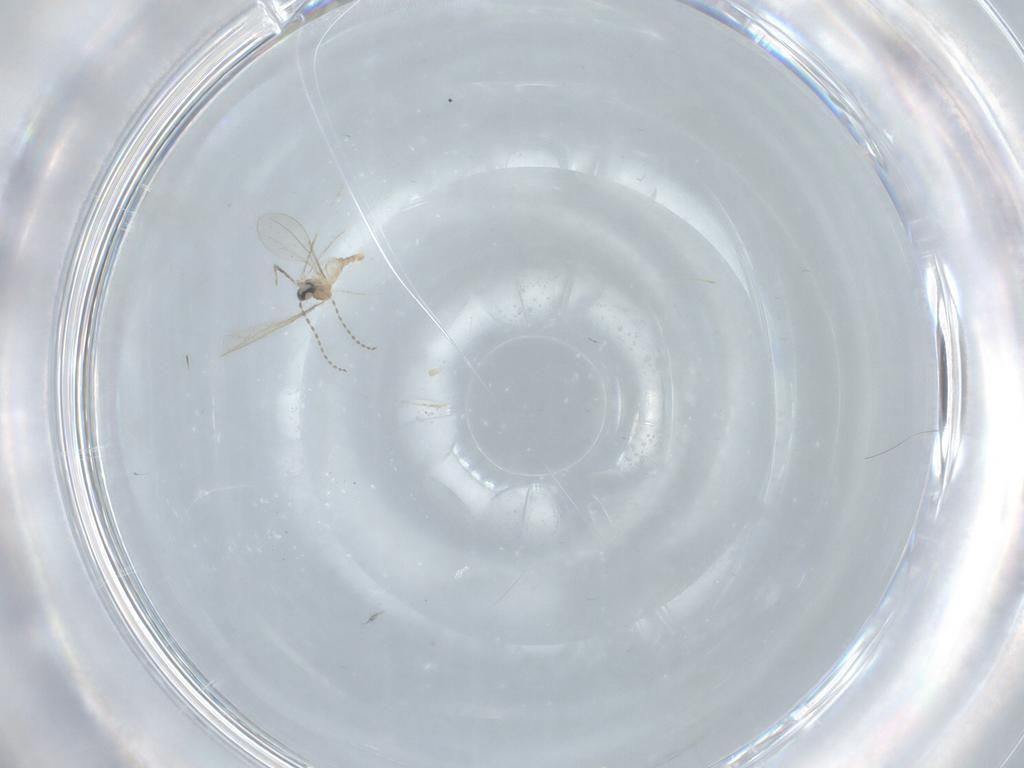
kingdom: Animalia
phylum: Arthropoda
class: Insecta
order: Diptera
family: Cecidomyiidae
